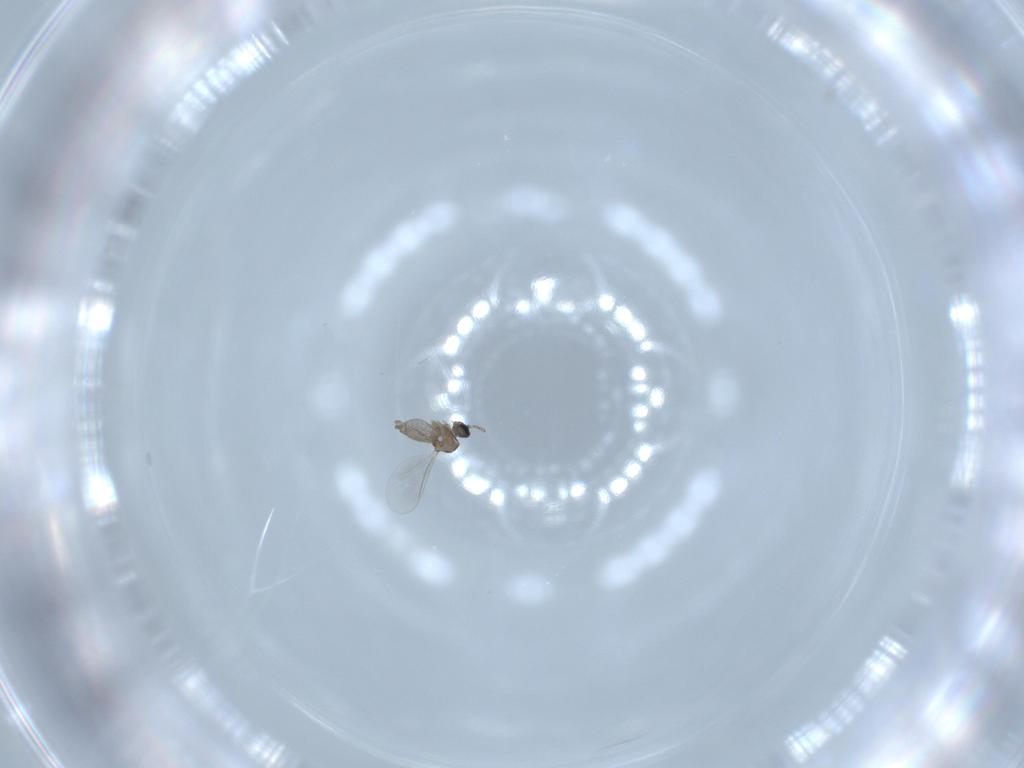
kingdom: Animalia
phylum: Arthropoda
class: Insecta
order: Diptera
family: Cecidomyiidae
